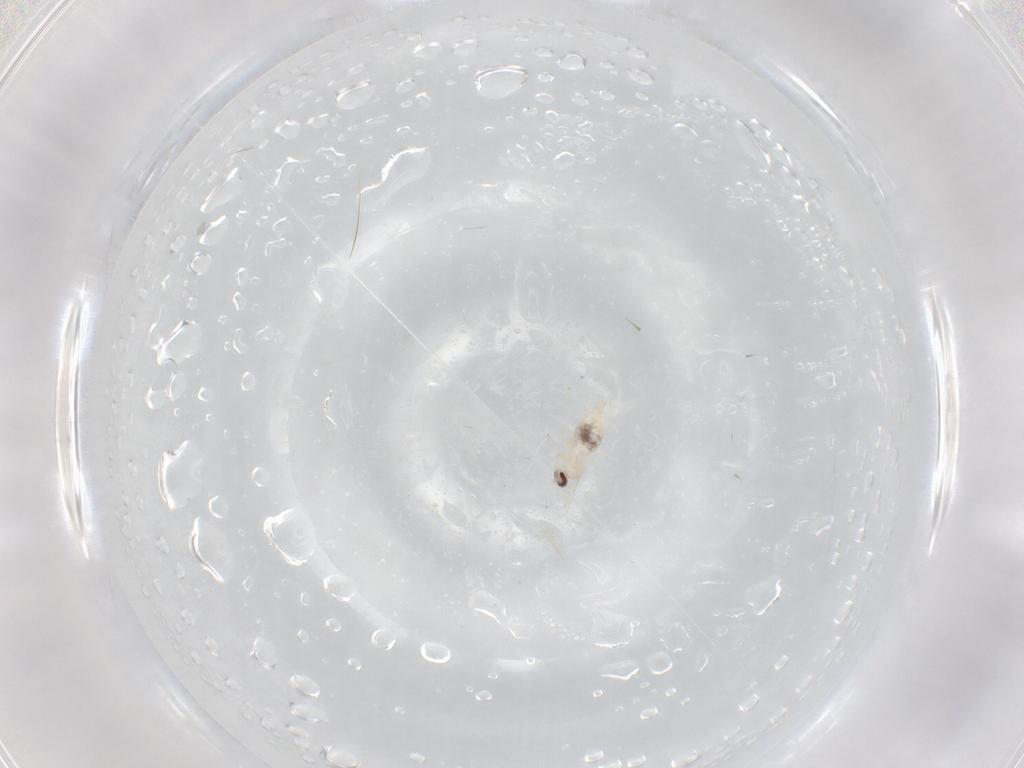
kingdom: Animalia
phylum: Arthropoda
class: Insecta
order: Diptera
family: Cecidomyiidae
